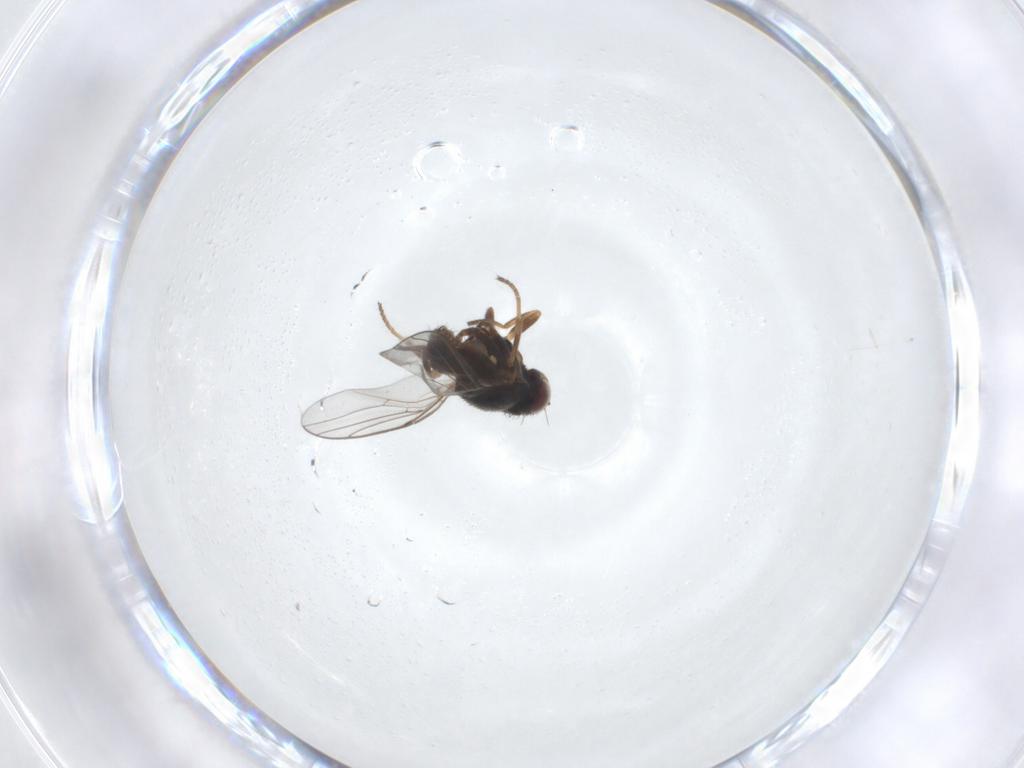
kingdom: Animalia
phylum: Arthropoda
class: Insecta
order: Diptera
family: Chloropidae
